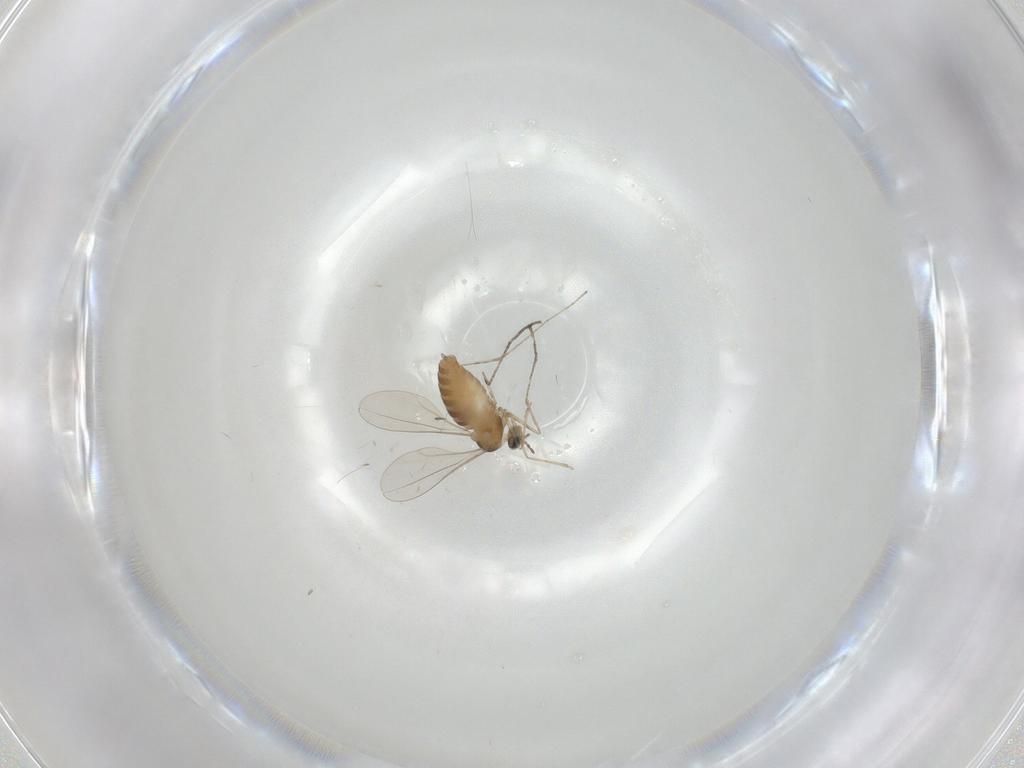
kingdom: Animalia
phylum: Arthropoda
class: Insecta
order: Diptera
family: Cecidomyiidae
